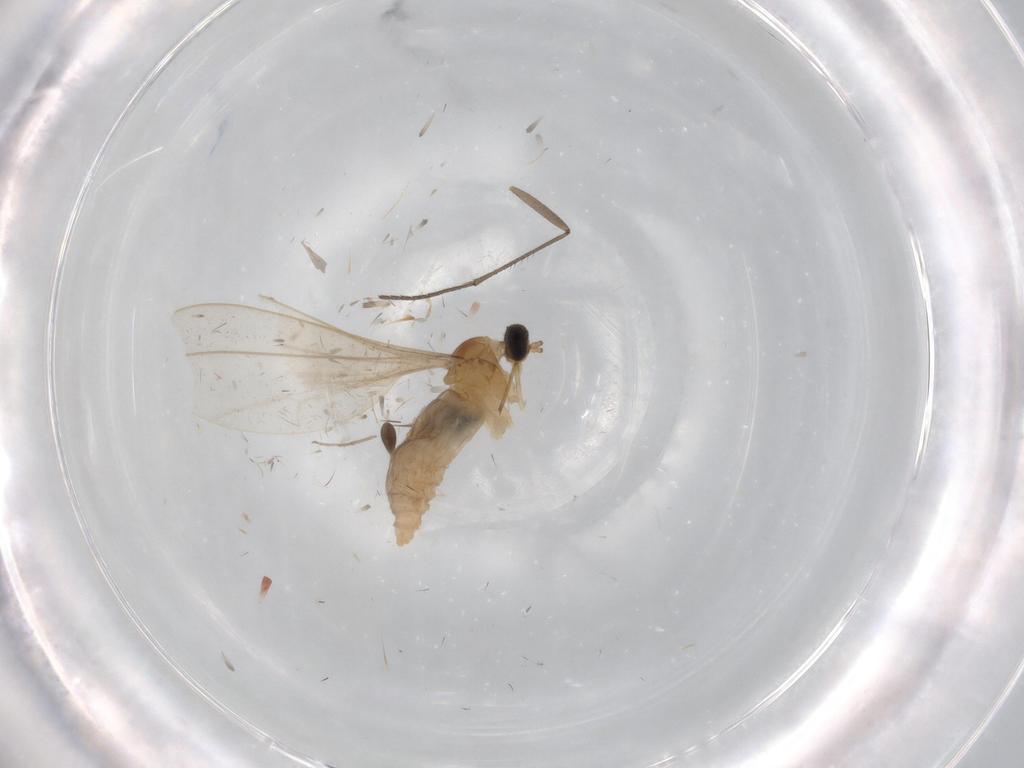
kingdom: Animalia
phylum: Arthropoda
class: Insecta
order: Diptera
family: Cecidomyiidae
